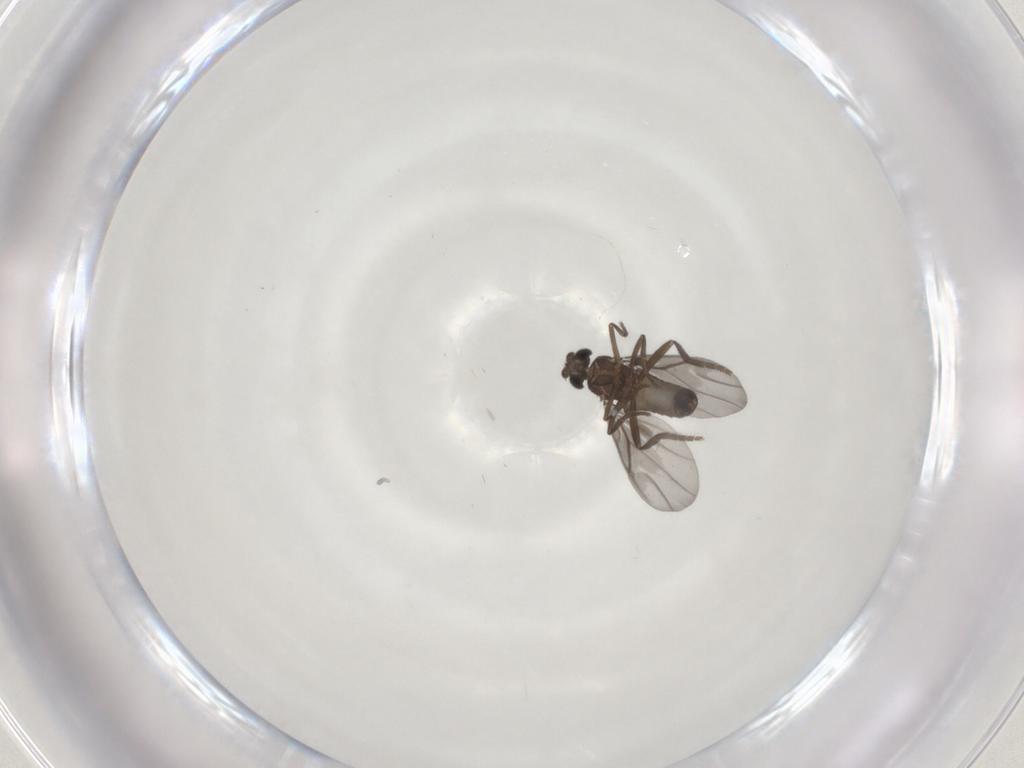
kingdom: Animalia
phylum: Arthropoda
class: Insecta
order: Diptera
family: Phoridae
